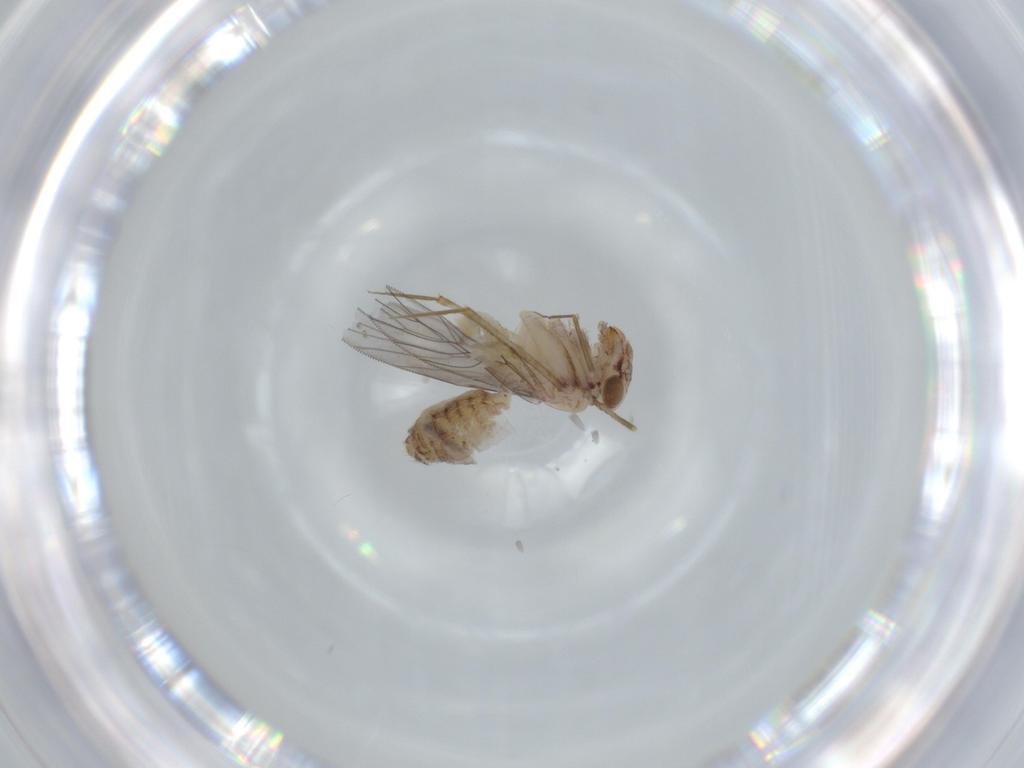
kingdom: Animalia
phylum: Arthropoda
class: Insecta
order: Psocodea
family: Lepidopsocidae
